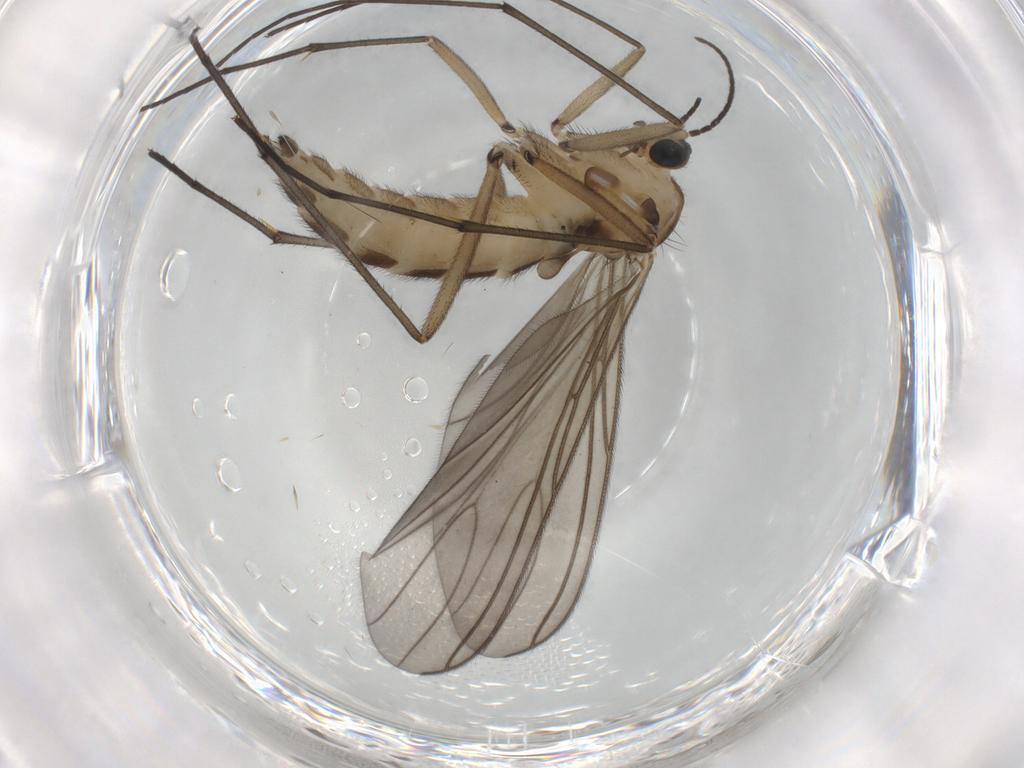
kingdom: Animalia
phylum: Arthropoda
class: Insecta
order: Diptera
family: Sciaridae
